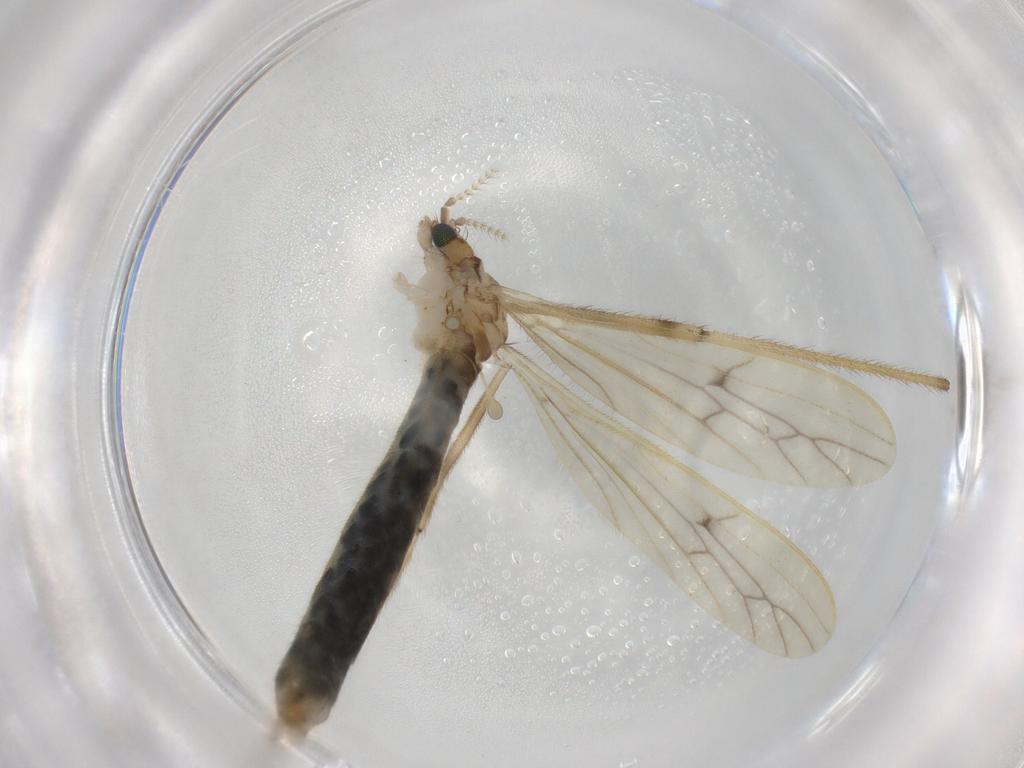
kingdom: Animalia
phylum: Arthropoda
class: Insecta
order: Diptera
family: Limoniidae
